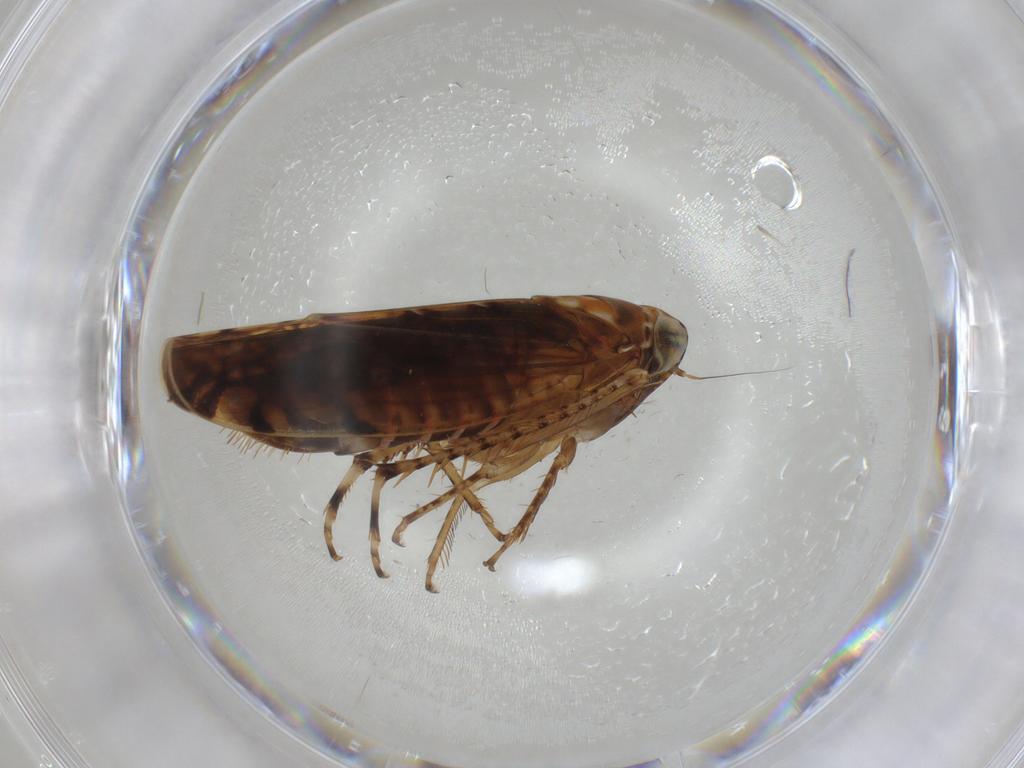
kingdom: Animalia
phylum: Arthropoda
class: Insecta
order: Hemiptera
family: Cicadellidae
